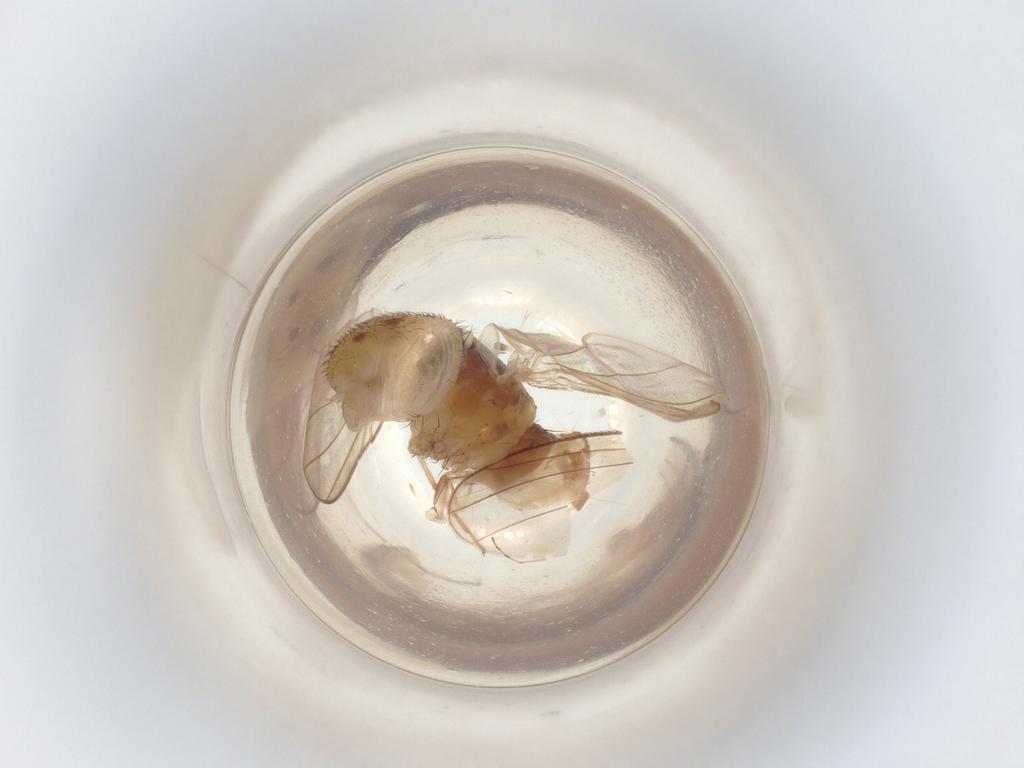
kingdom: Animalia
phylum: Arthropoda
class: Insecta
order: Diptera
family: Muscidae
